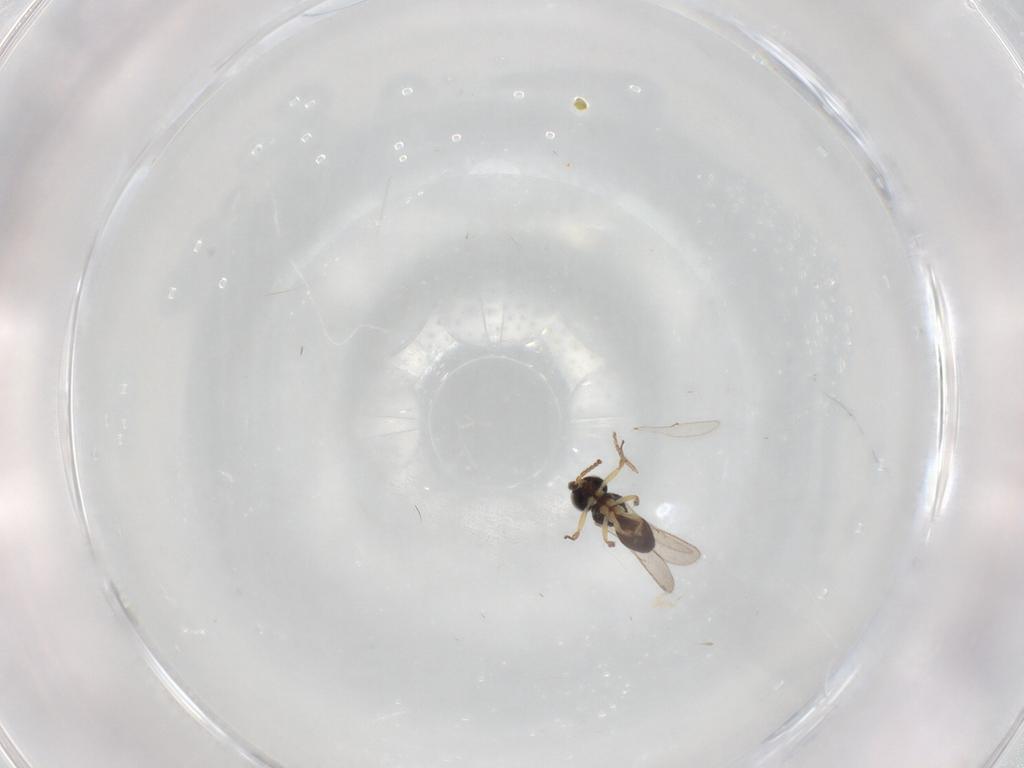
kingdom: Animalia
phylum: Arthropoda
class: Insecta
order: Hymenoptera
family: Scelionidae
